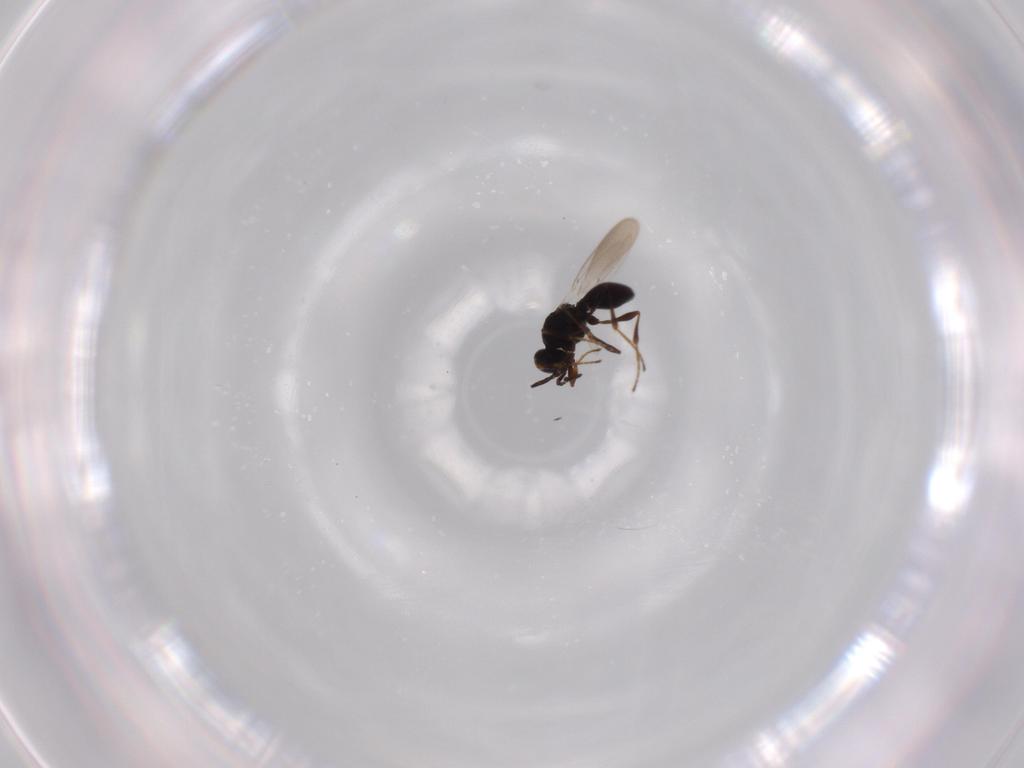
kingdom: Animalia
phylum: Arthropoda
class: Insecta
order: Hymenoptera
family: Platygastridae
